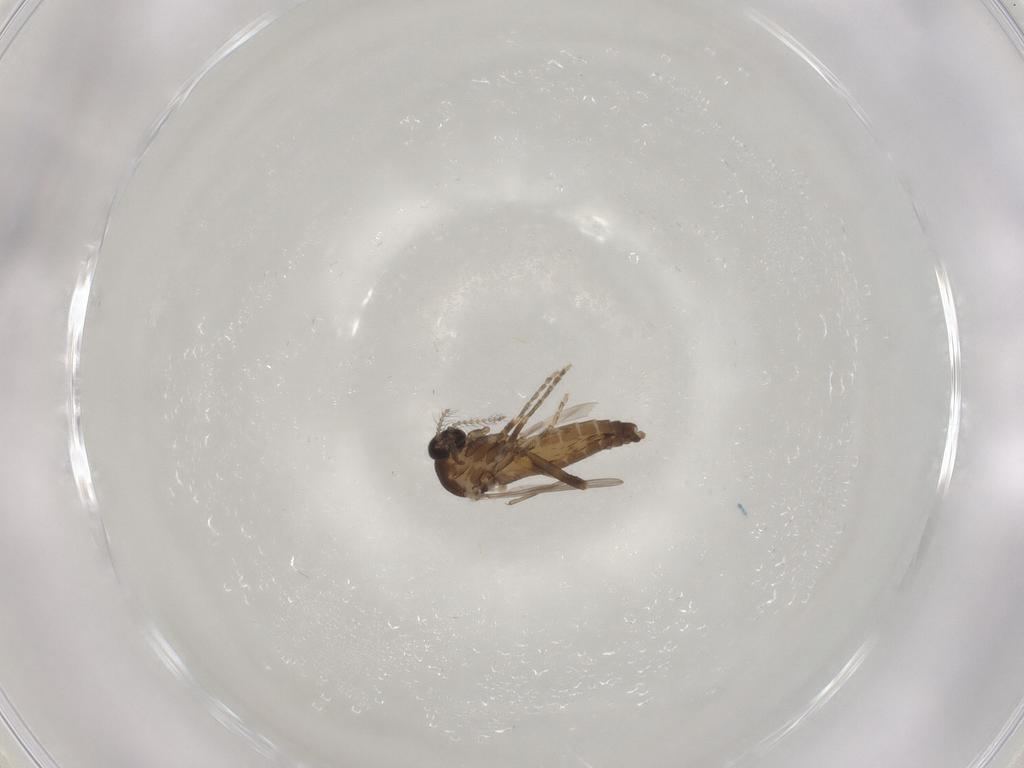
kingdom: Animalia
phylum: Arthropoda
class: Insecta
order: Diptera
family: Ceratopogonidae
